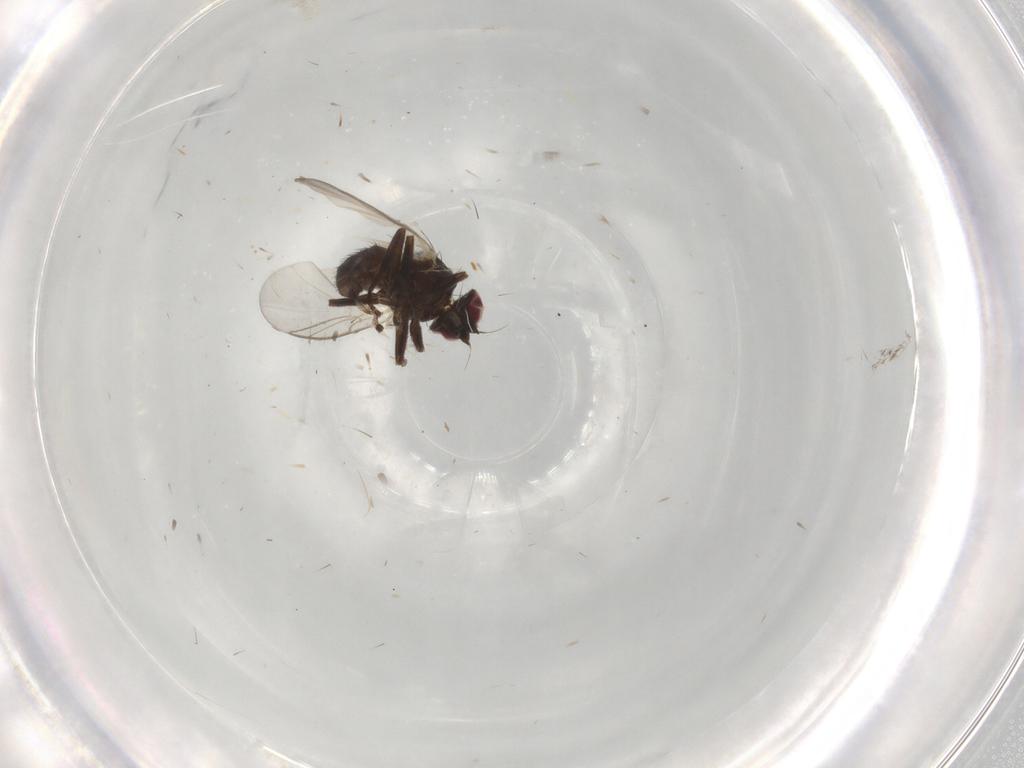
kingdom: Animalia
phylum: Arthropoda
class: Insecta
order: Diptera
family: Agromyzidae
